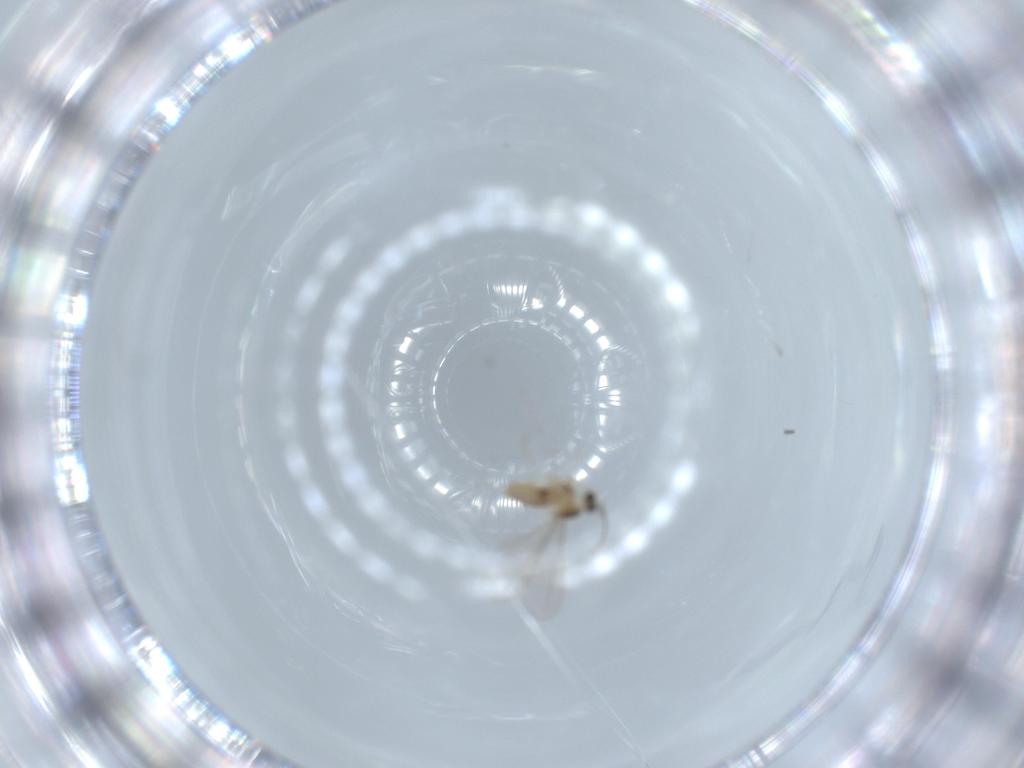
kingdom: Animalia
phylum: Arthropoda
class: Insecta
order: Diptera
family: Cecidomyiidae
